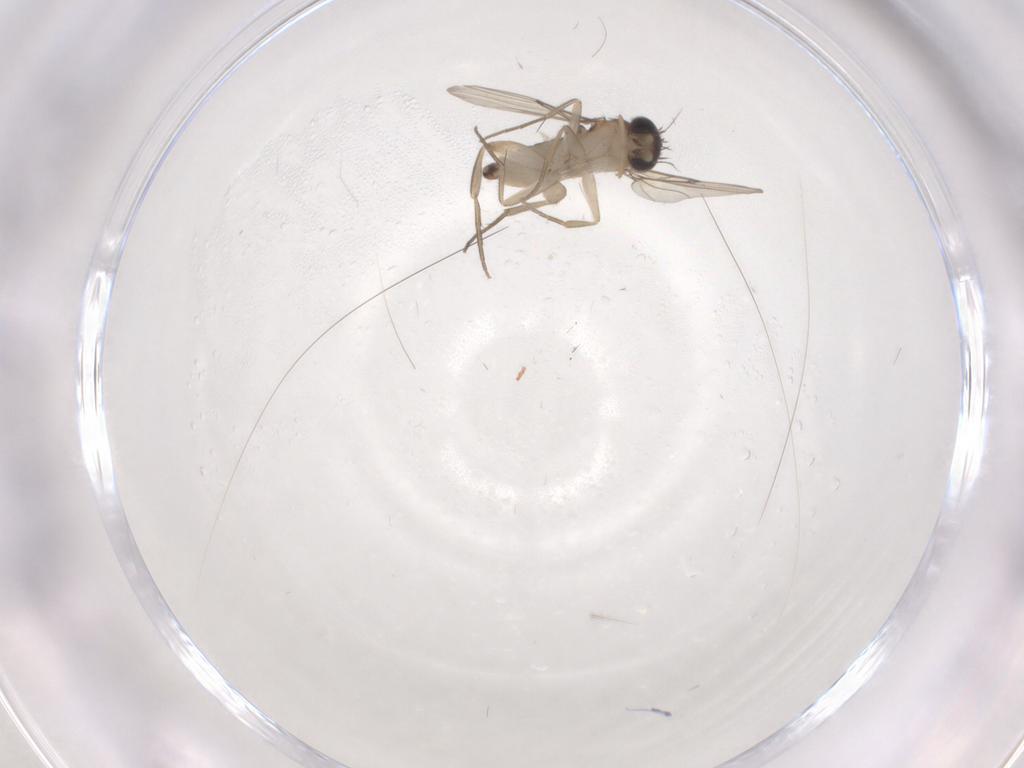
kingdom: Animalia
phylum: Arthropoda
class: Insecta
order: Diptera
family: Phoridae
